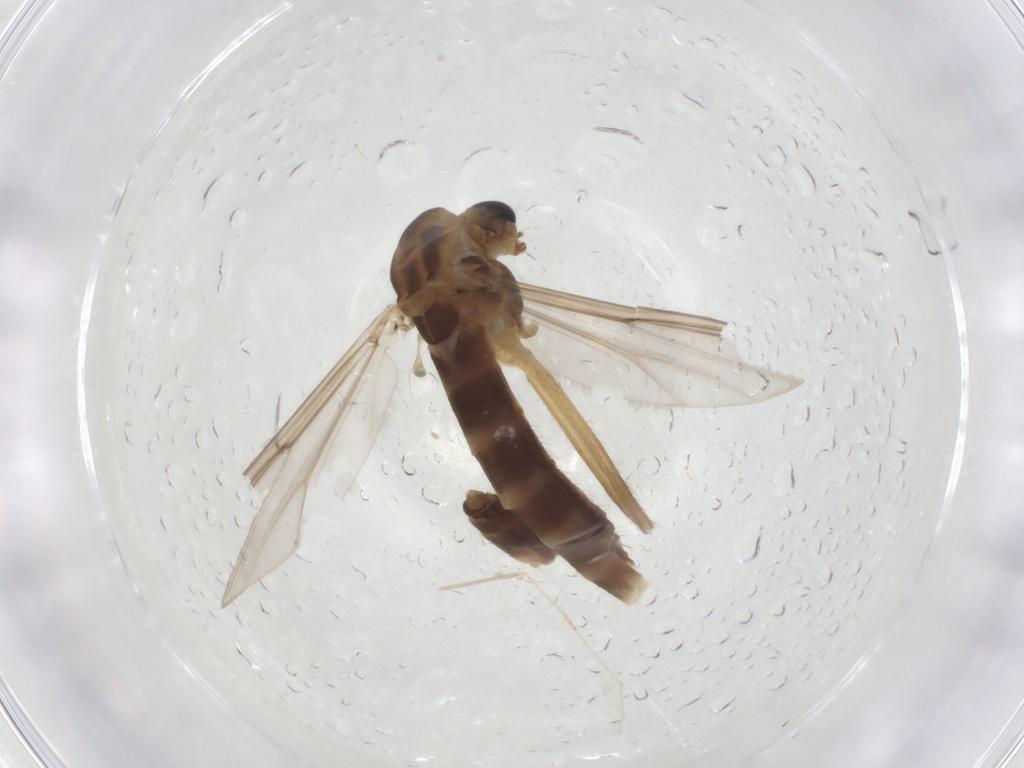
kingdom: Animalia
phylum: Arthropoda
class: Insecta
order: Diptera
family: Chironomidae
